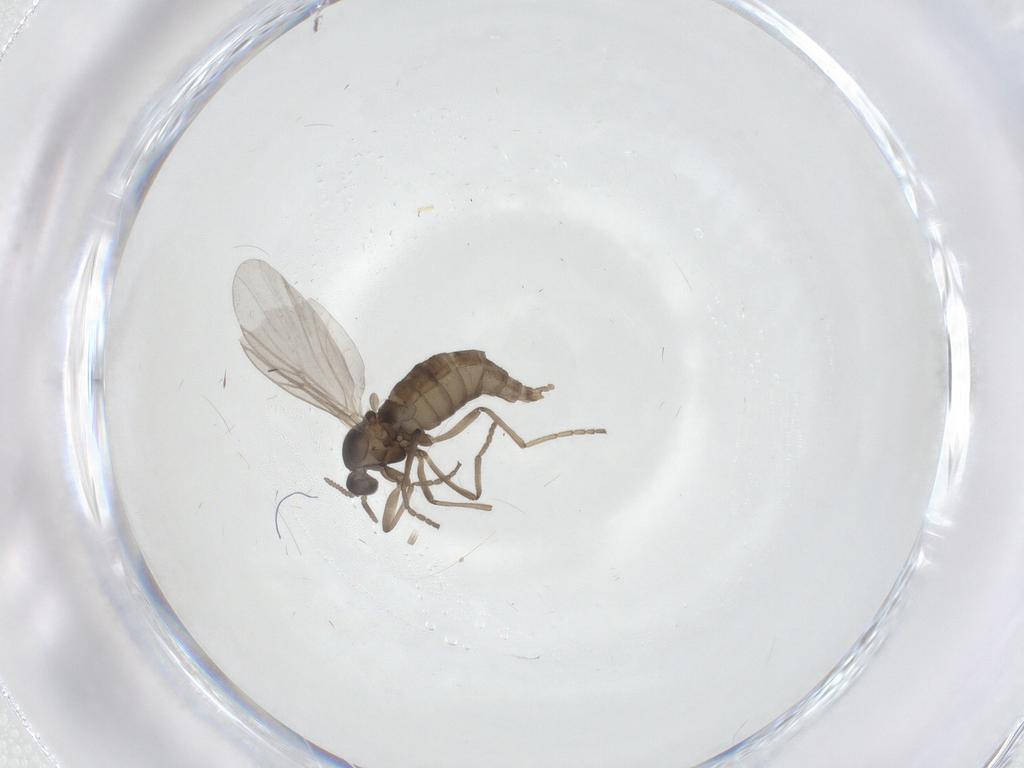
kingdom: Animalia
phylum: Arthropoda
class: Insecta
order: Diptera
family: Cecidomyiidae
